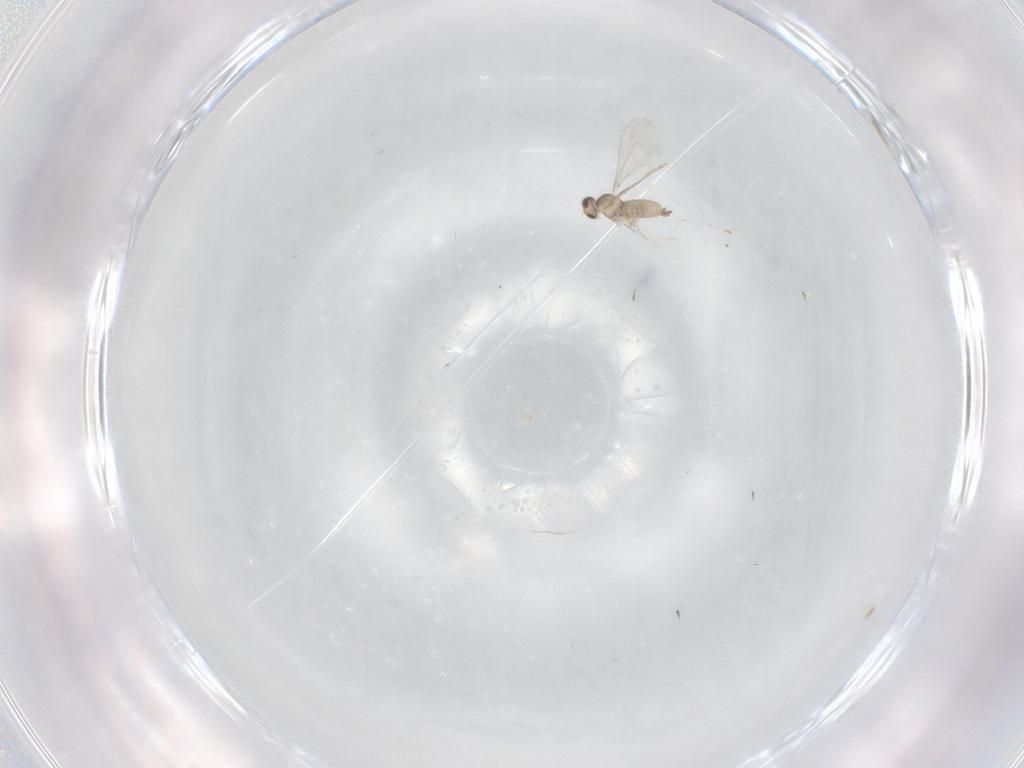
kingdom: Animalia
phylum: Arthropoda
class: Insecta
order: Diptera
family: Cecidomyiidae
